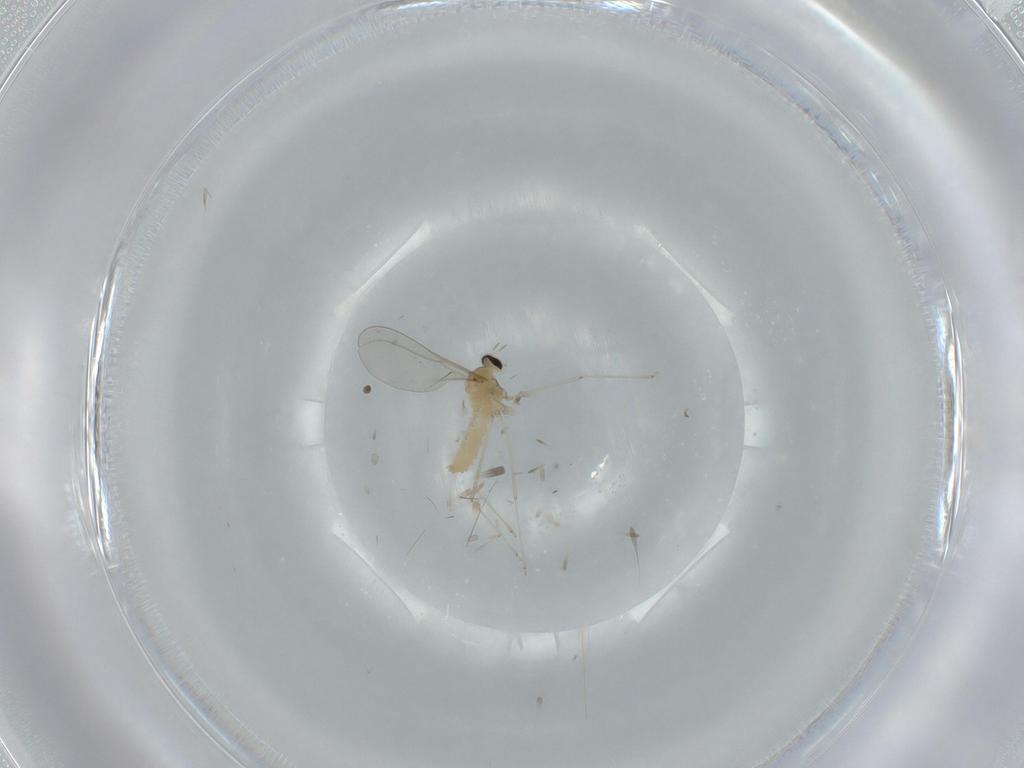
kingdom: Animalia
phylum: Arthropoda
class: Insecta
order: Diptera
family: Cecidomyiidae
